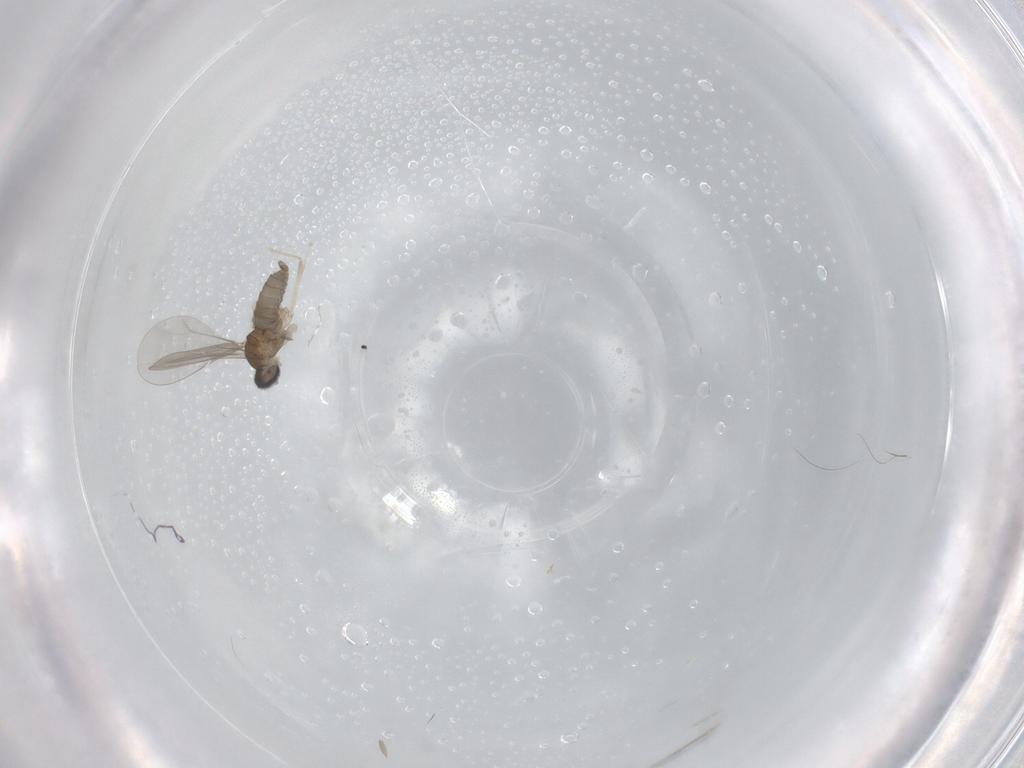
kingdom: Animalia
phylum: Arthropoda
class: Insecta
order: Diptera
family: Cecidomyiidae
